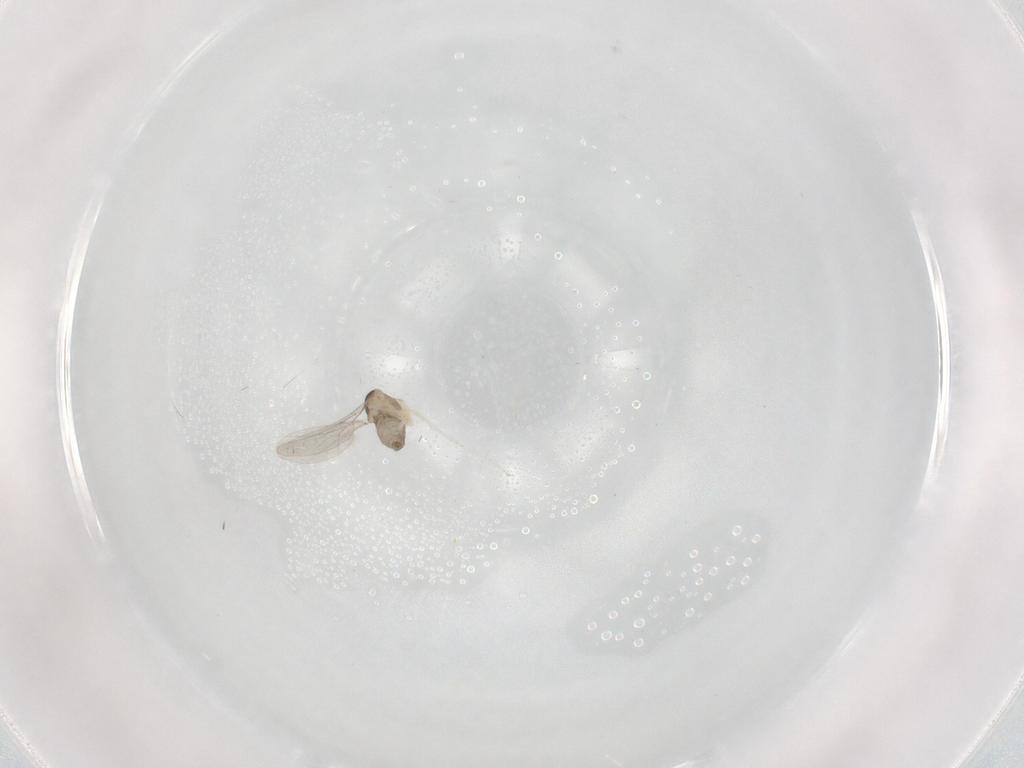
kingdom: Animalia
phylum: Arthropoda
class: Insecta
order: Diptera
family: Cecidomyiidae
